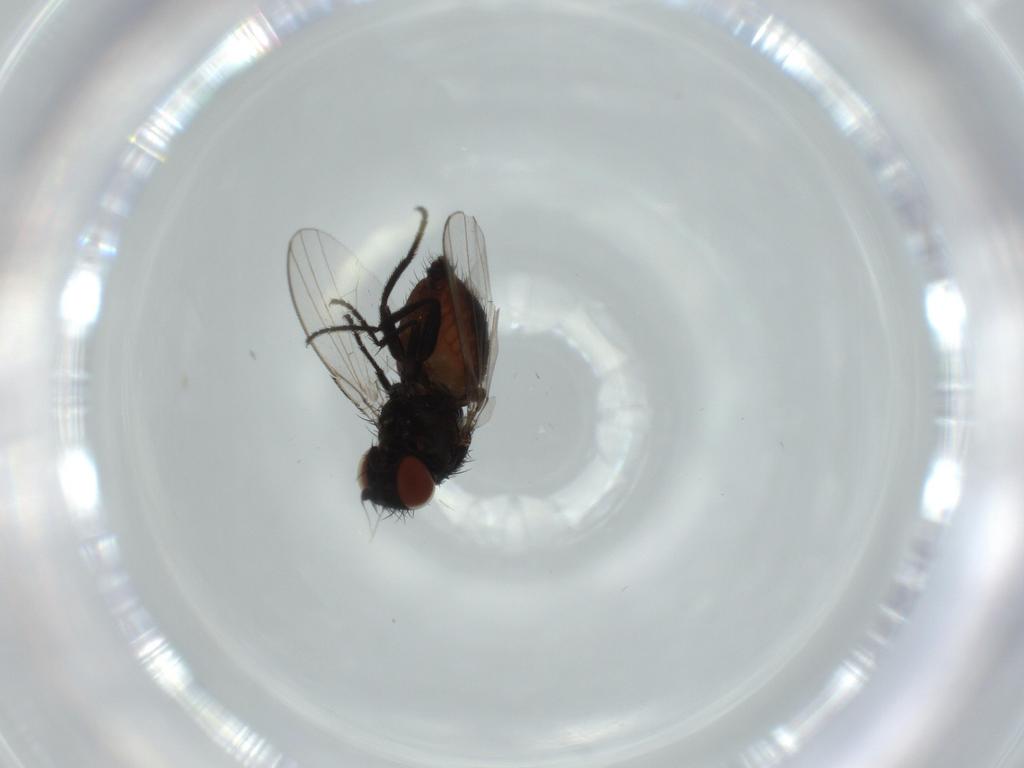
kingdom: Animalia
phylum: Arthropoda
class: Insecta
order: Diptera
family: Milichiidae
